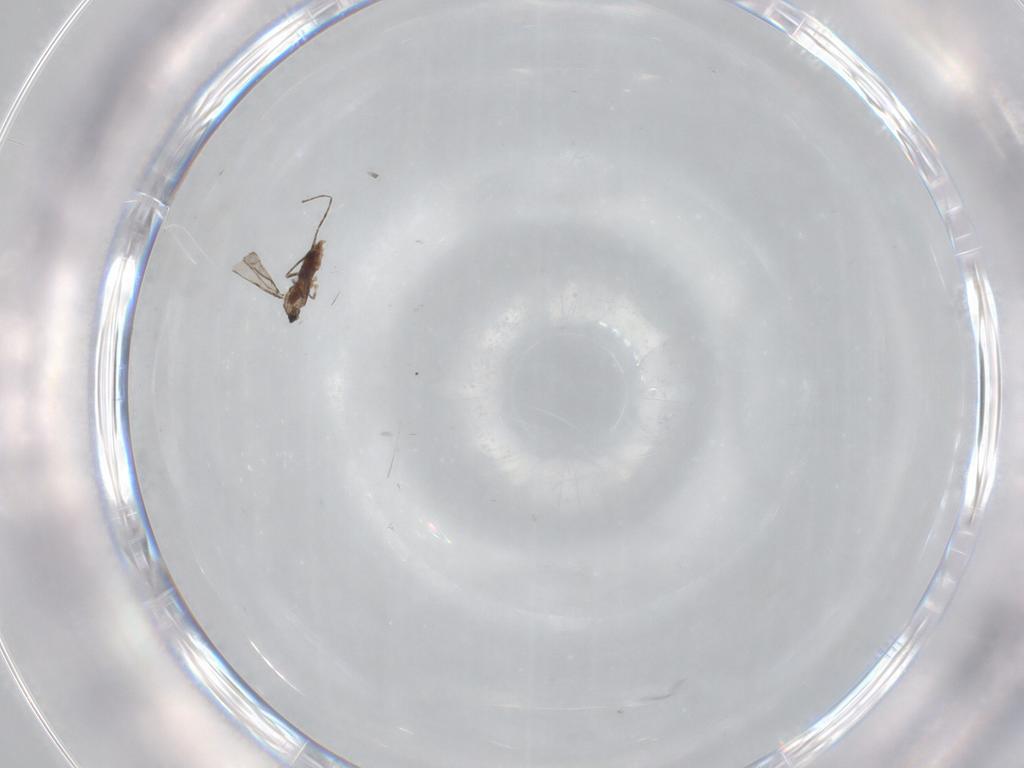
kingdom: Animalia
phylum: Arthropoda
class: Insecta
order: Diptera
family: Cecidomyiidae
